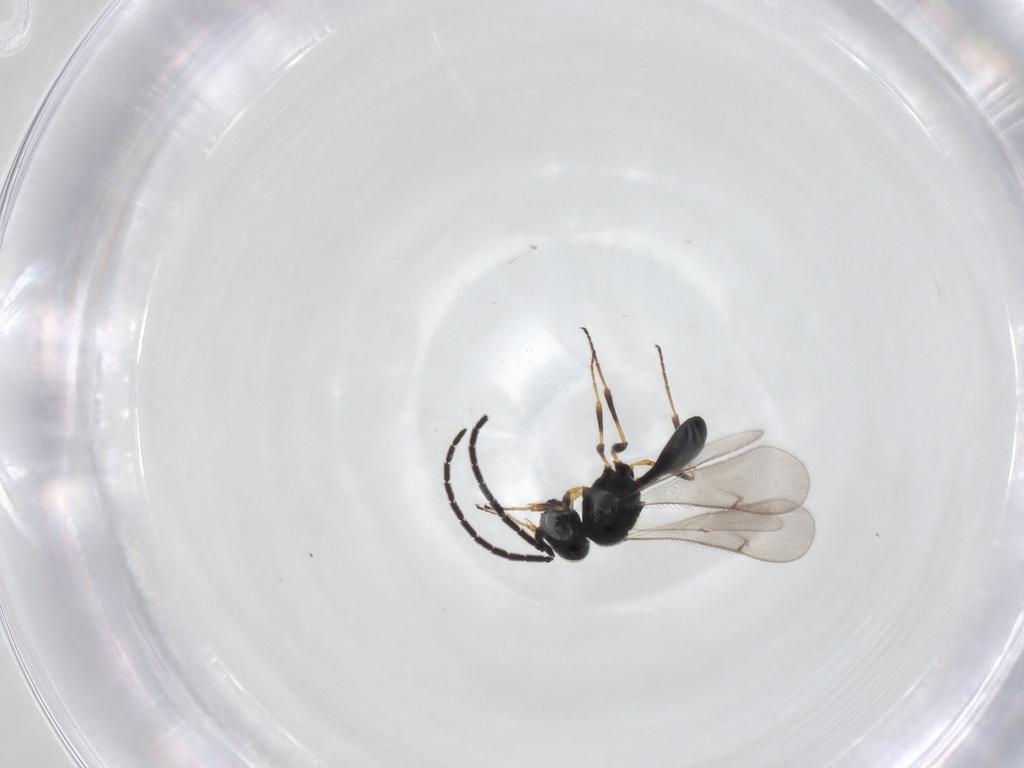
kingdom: Animalia
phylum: Arthropoda
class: Insecta
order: Hymenoptera
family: Scelionidae
